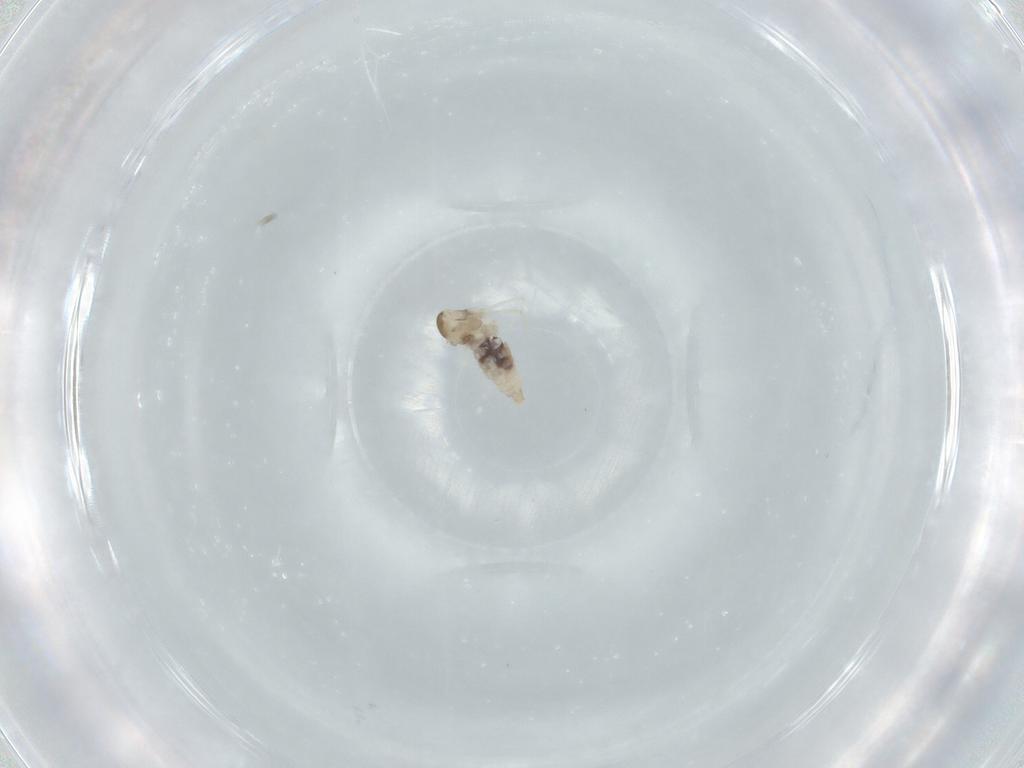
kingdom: Animalia
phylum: Arthropoda
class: Insecta
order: Diptera
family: Cecidomyiidae
